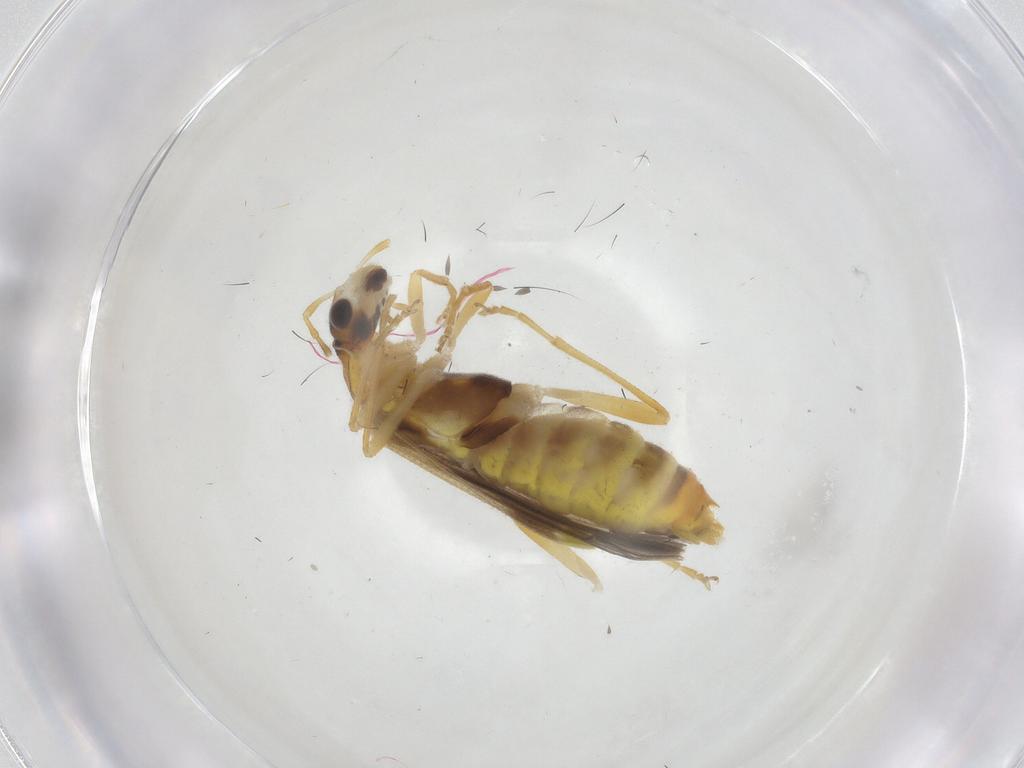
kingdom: Animalia
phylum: Arthropoda
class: Insecta
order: Coleoptera
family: Cantharidae
